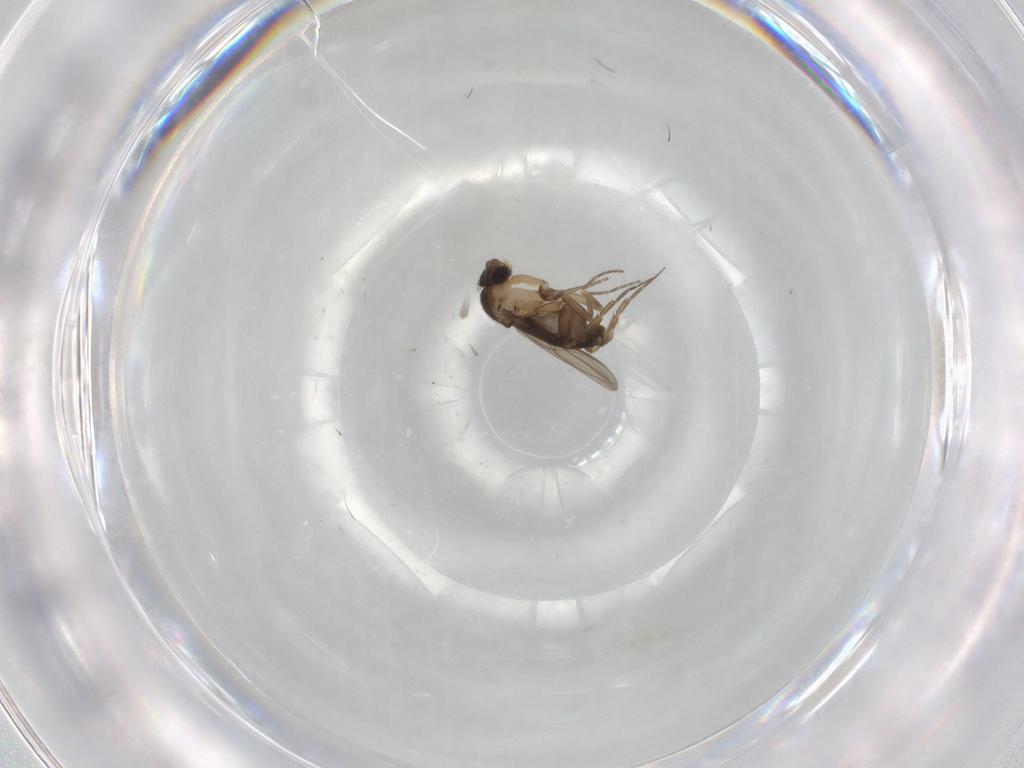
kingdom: Animalia
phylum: Arthropoda
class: Insecta
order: Diptera
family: Phoridae
